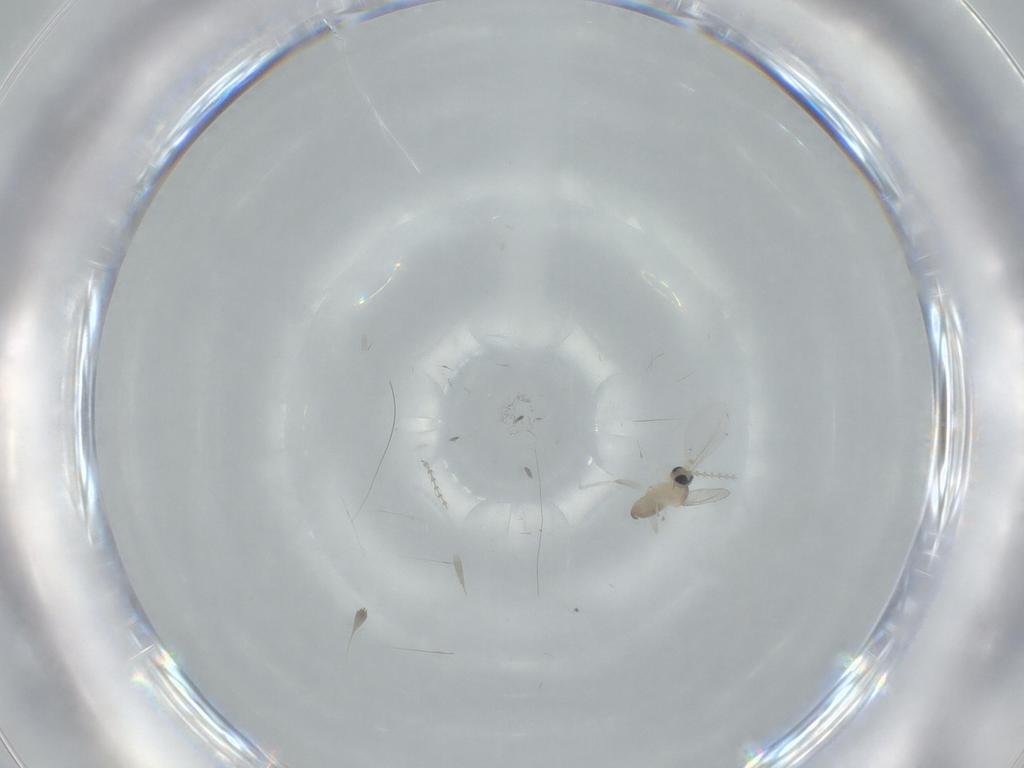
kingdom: Animalia
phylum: Arthropoda
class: Insecta
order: Diptera
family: Cecidomyiidae
